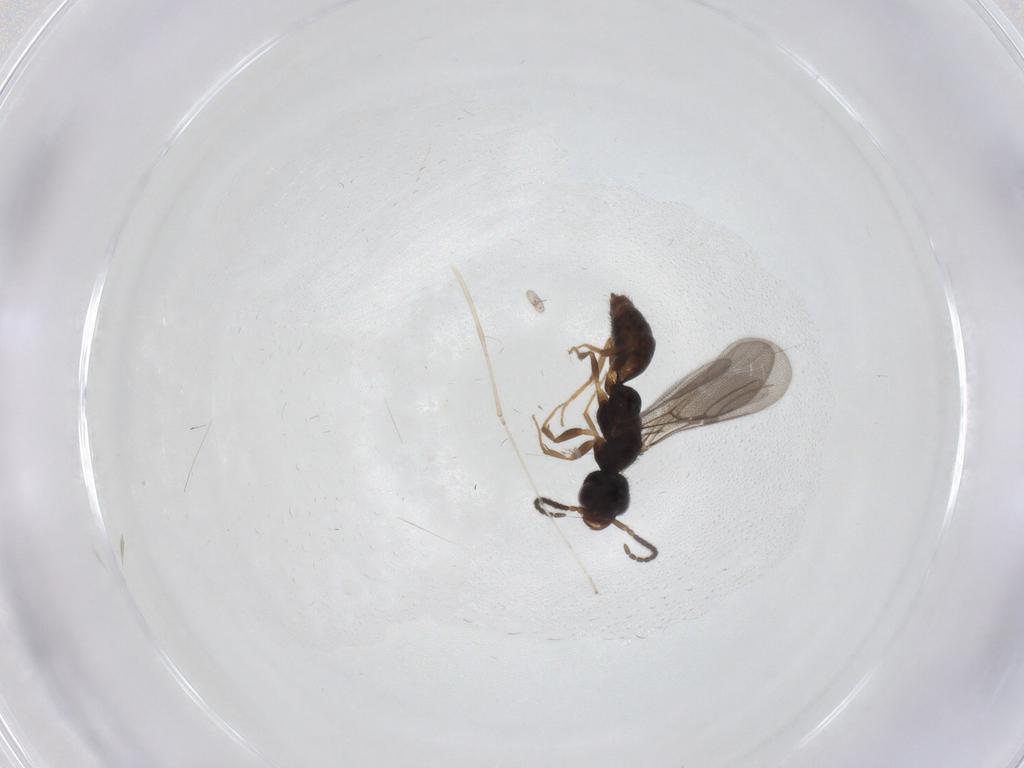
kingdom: Animalia
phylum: Arthropoda
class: Insecta
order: Hymenoptera
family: Bethylidae
